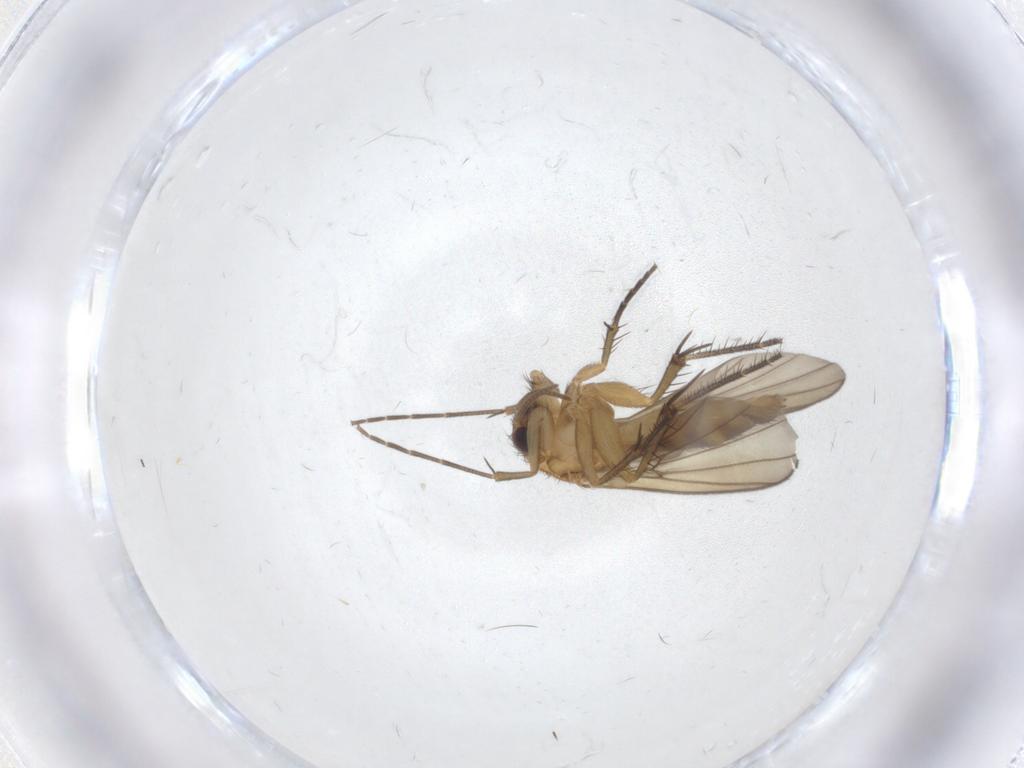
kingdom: Animalia
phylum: Arthropoda
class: Insecta
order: Diptera
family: Mycetophilidae
